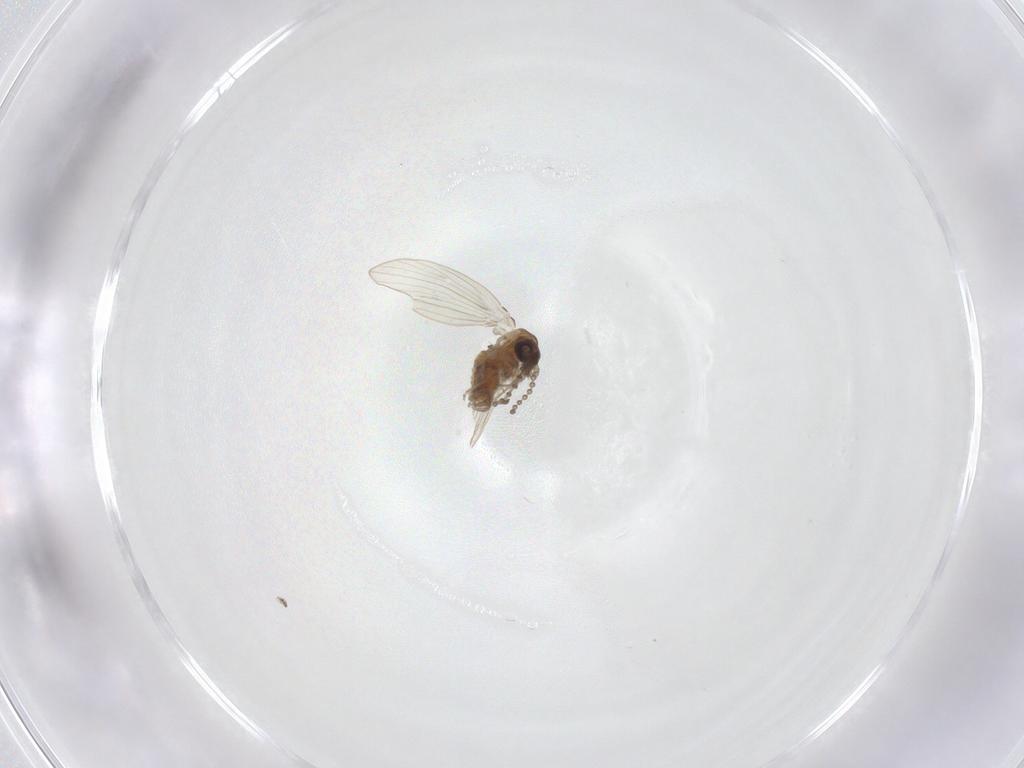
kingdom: Animalia
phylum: Arthropoda
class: Insecta
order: Diptera
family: Psychodidae
